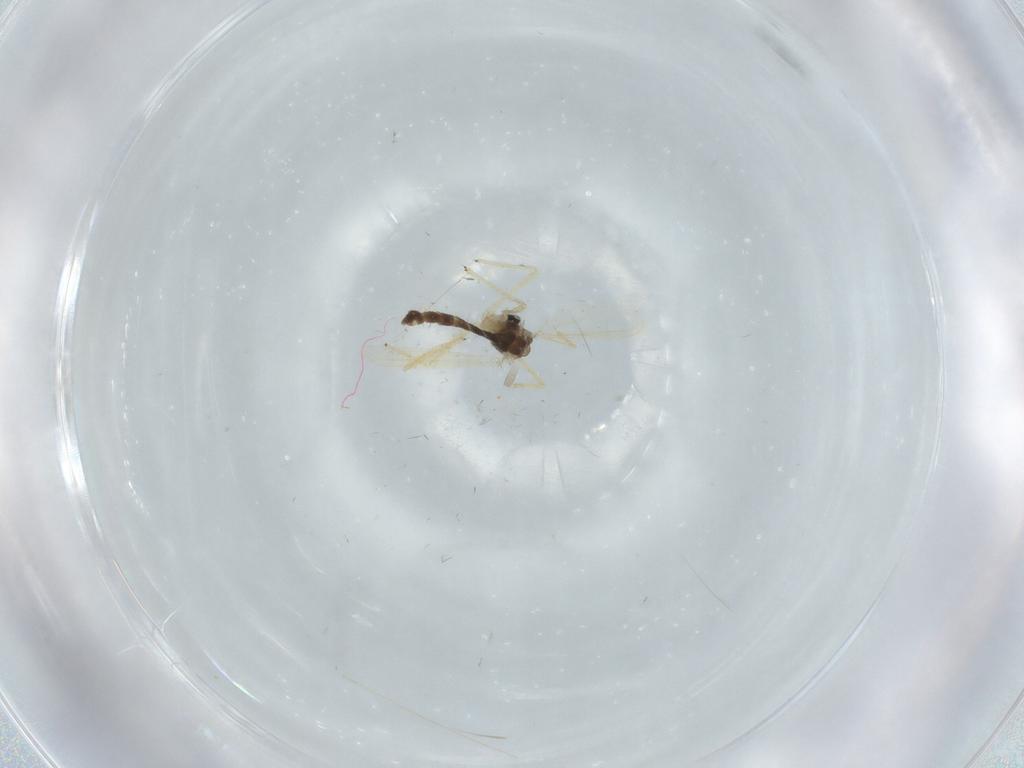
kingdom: Animalia
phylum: Arthropoda
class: Insecta
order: Diptera
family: Chironomidae
